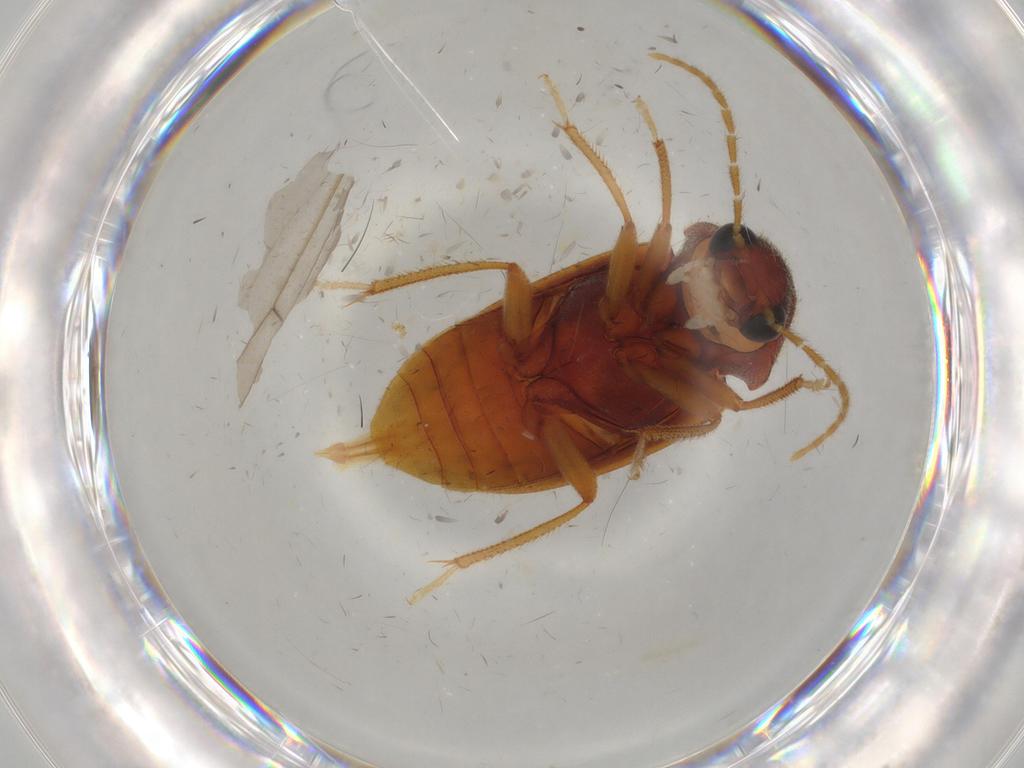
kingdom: Animalia
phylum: Arthropoda
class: Insecta
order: Coleoptera
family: Ptilodactylidae
